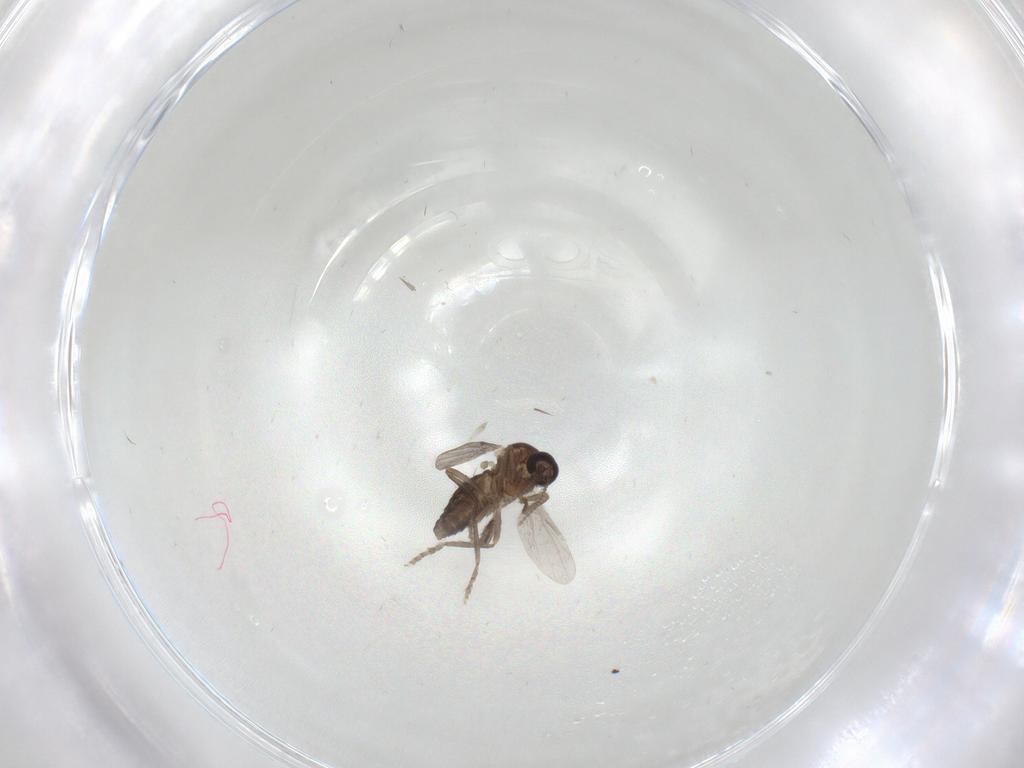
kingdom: Animalia
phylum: Arthropoda
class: Insecta
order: Diptera
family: Ceratopogonidae
